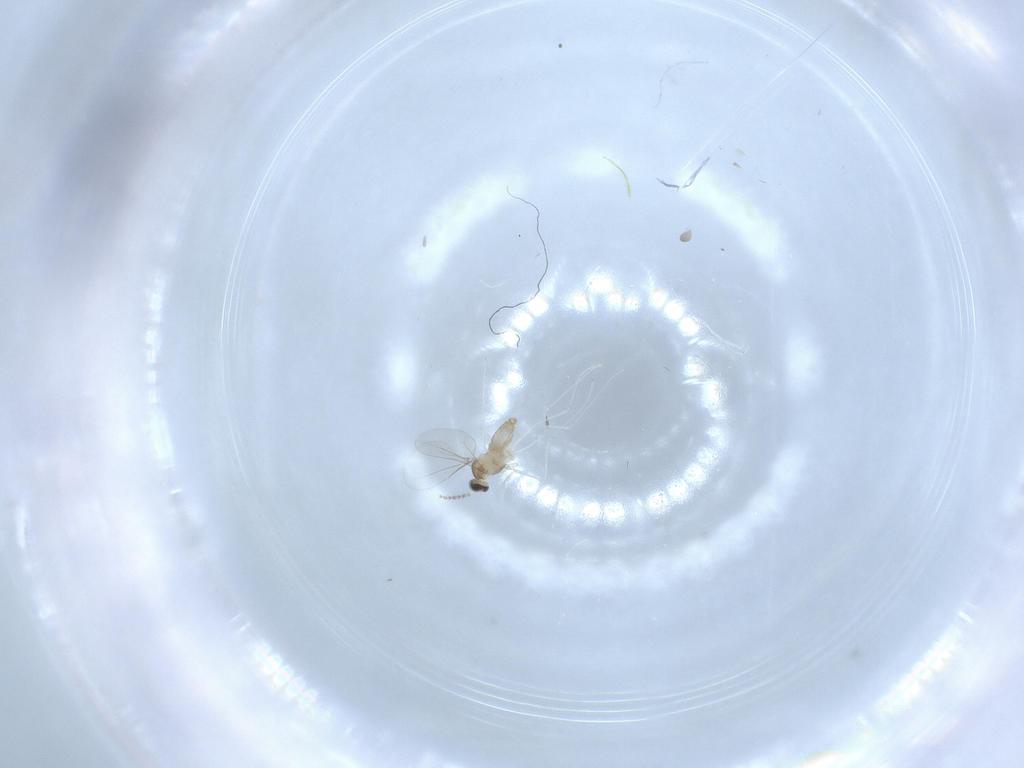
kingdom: Animalia
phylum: Arthropoda
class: Insecta
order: Diptera
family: Cecidomyiidae
